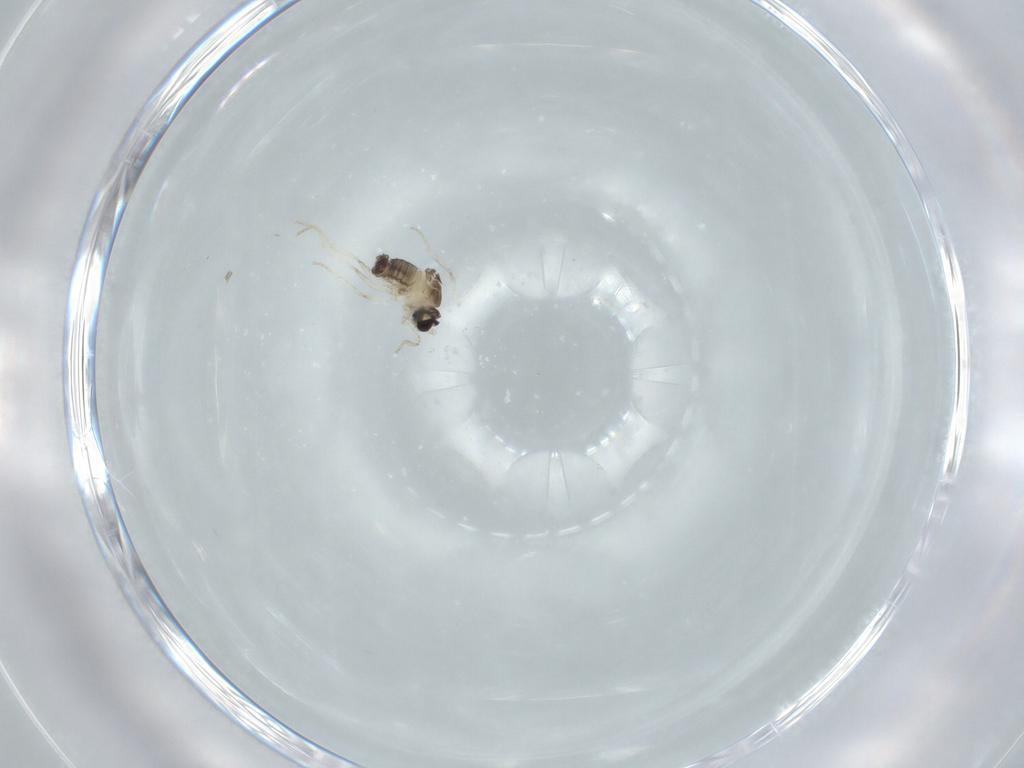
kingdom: Animalia
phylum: Arthropoda
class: Insecta
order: Diptera
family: Cecidomyiidae
